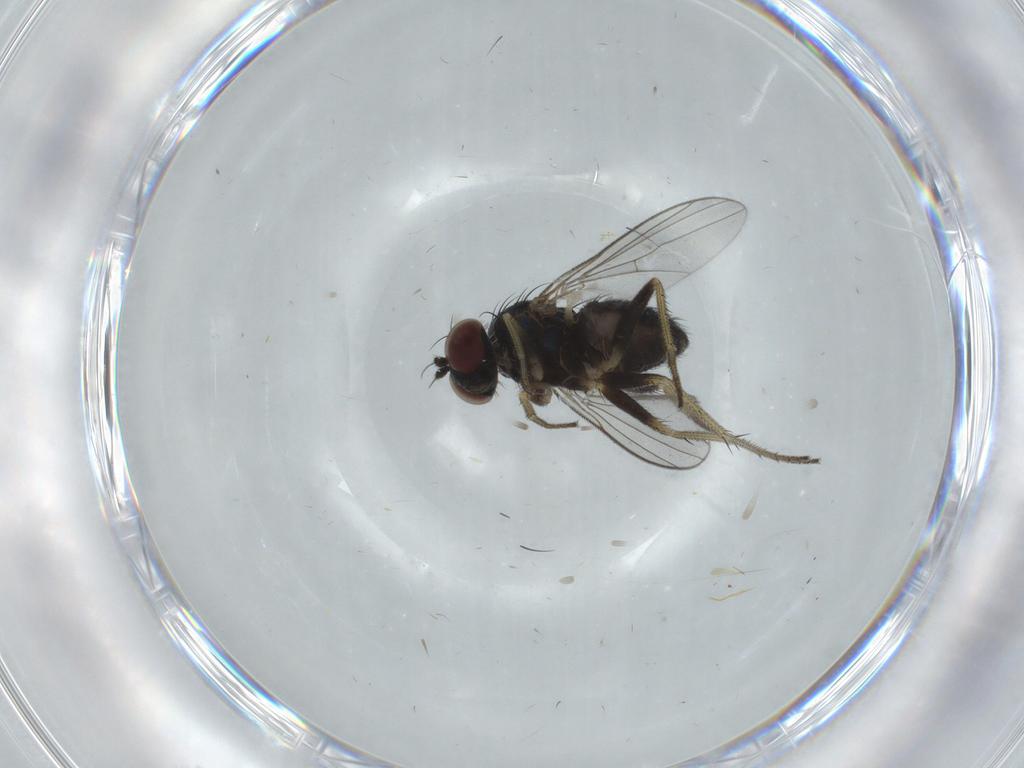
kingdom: Animalia
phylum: Arthropoda
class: Insecta
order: Diptera
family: Dolichopodidae
